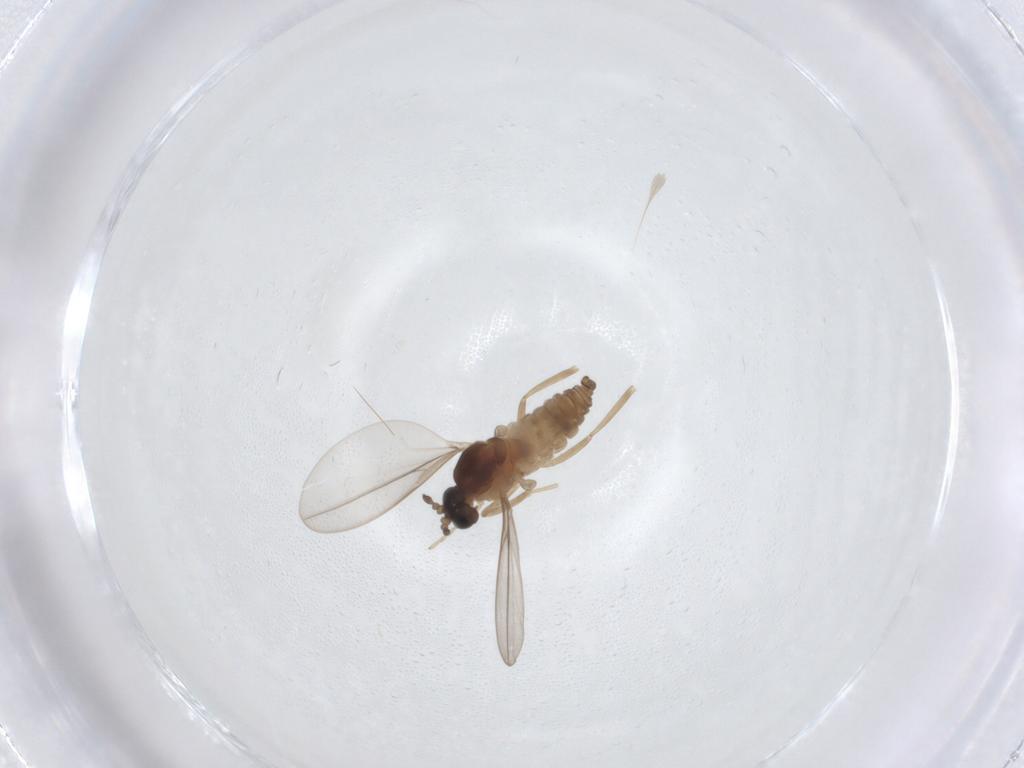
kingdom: Animalia
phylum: Arthropoda
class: Insecta
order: Diptera
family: Cecidomyiidae
